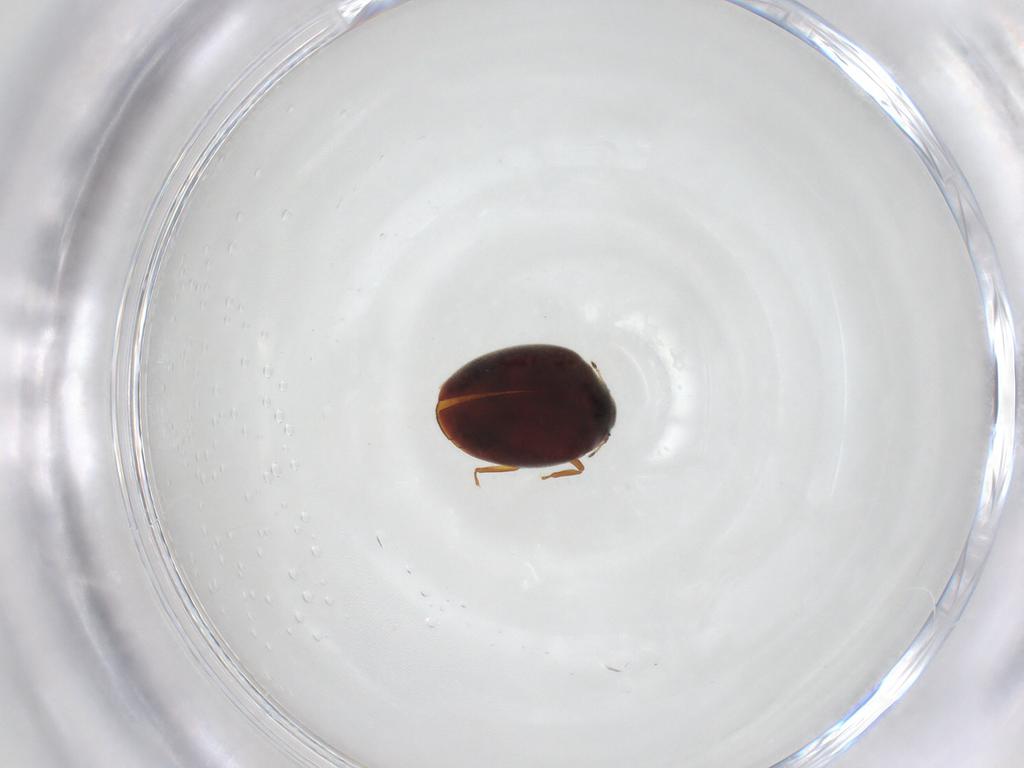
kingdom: Animalia
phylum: Arthropoda
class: Insecta
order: Coleoptera
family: Limnichidae
